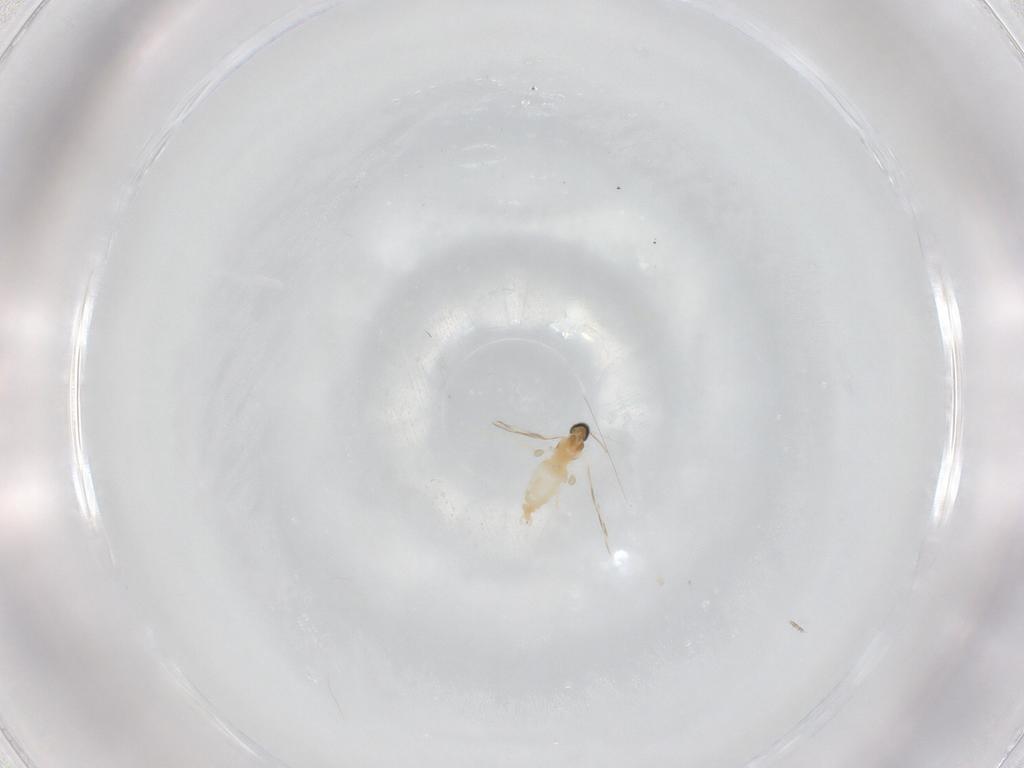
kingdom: Animalia
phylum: Arthropoda
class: Insecta
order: Diptera
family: Cecidomyiidae
